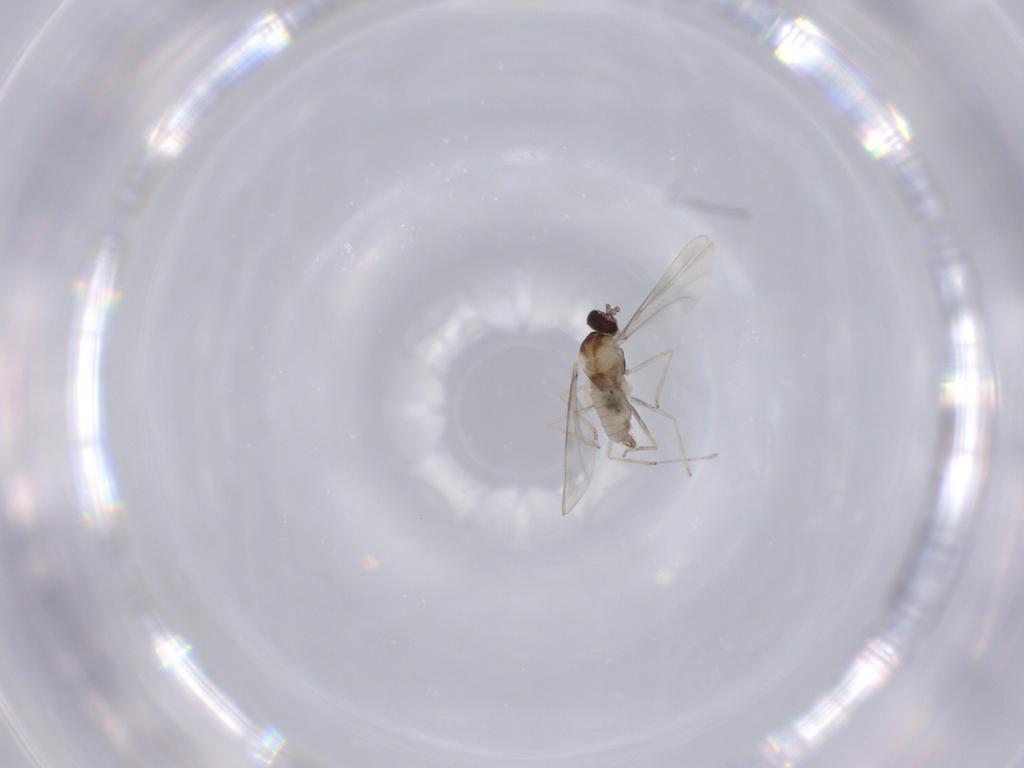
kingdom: Animalia
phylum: Arthropoda
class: Insecta
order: Diptera
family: Cecidomyiidae
